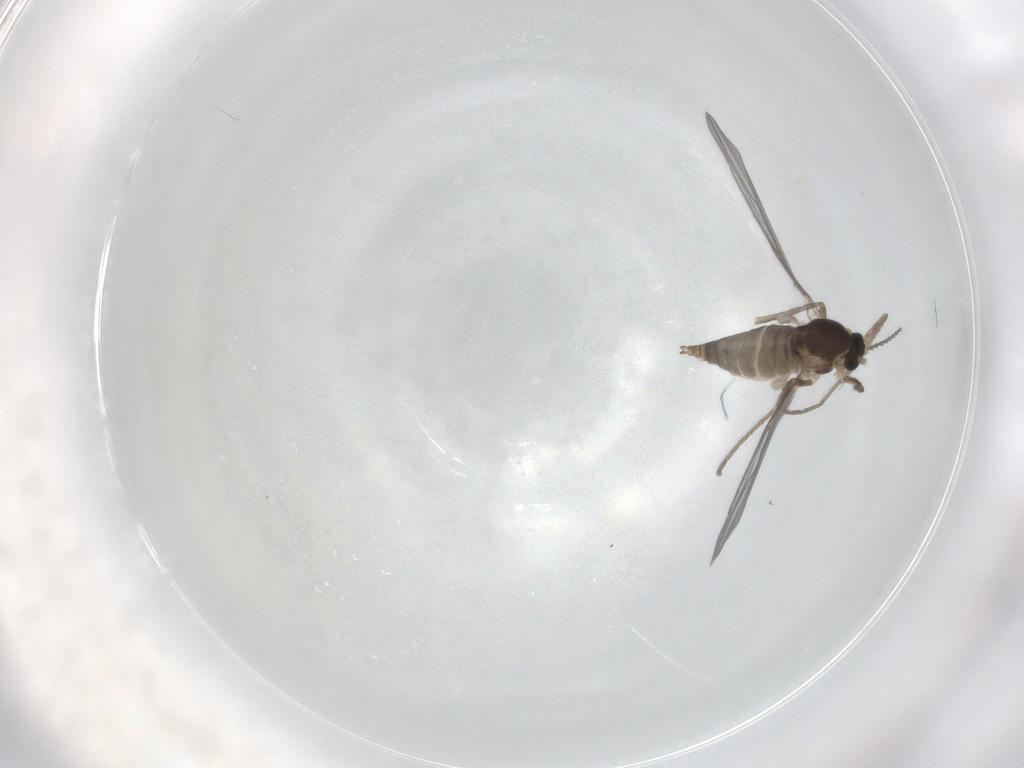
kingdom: Animalia
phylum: Arthropoda
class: Insecta
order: Diptera
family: Cecidomyiidae
